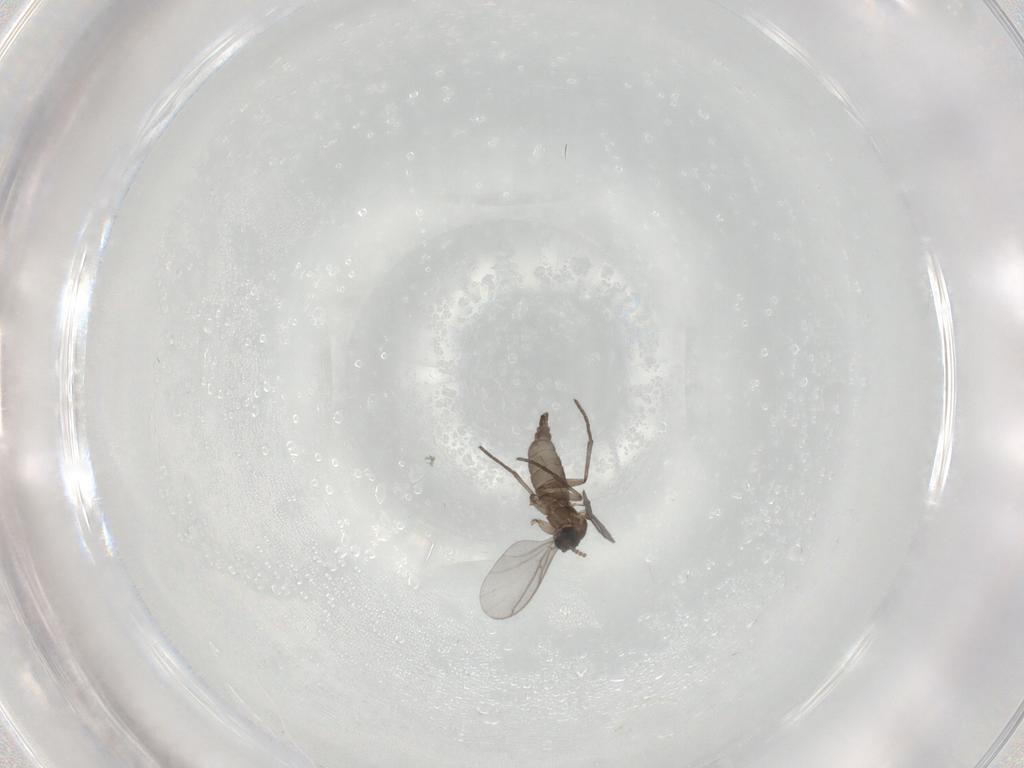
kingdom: Animalia
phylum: Arthropoda
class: Insecta
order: Diptera
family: Sciaridae
